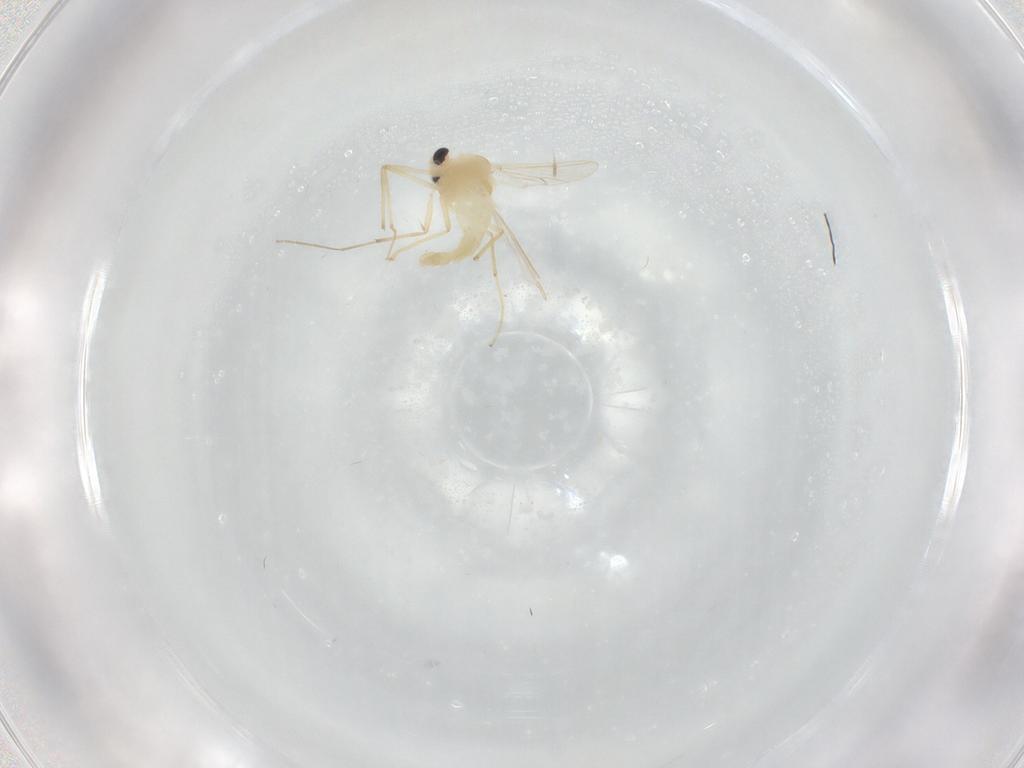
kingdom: Animalia
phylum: Arthropoda
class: Insecta
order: Diptera
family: Chironomidae
